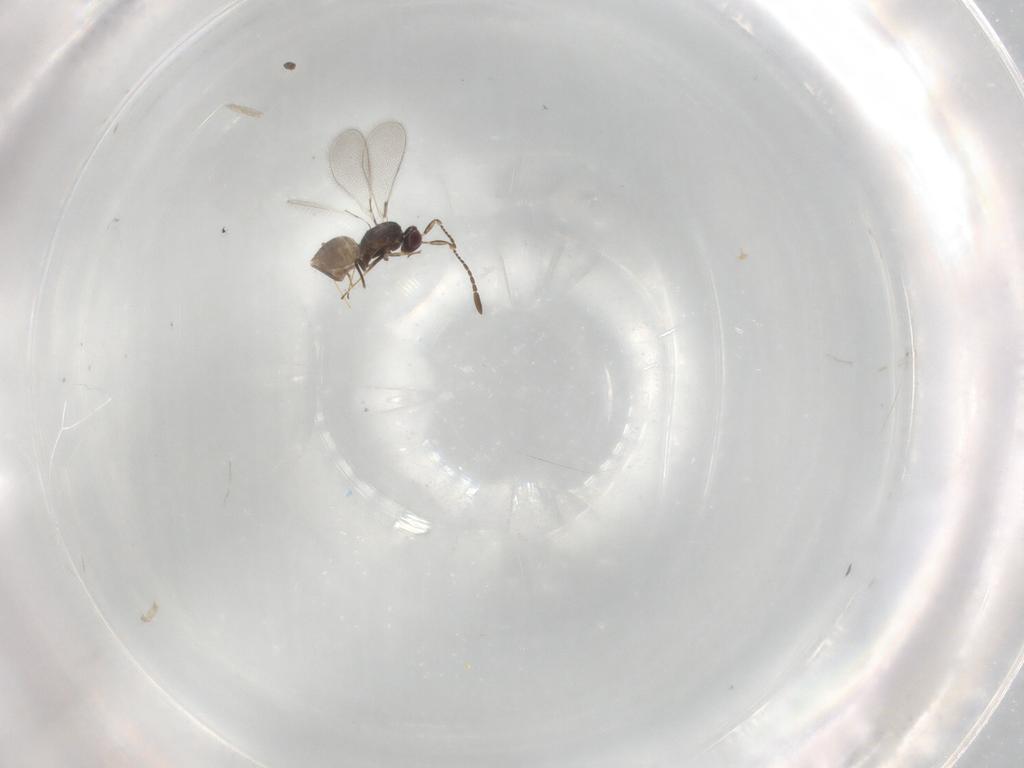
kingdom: Animalia
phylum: Arthropoda
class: Insecta
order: Hymenoptera
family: Mymaridae
